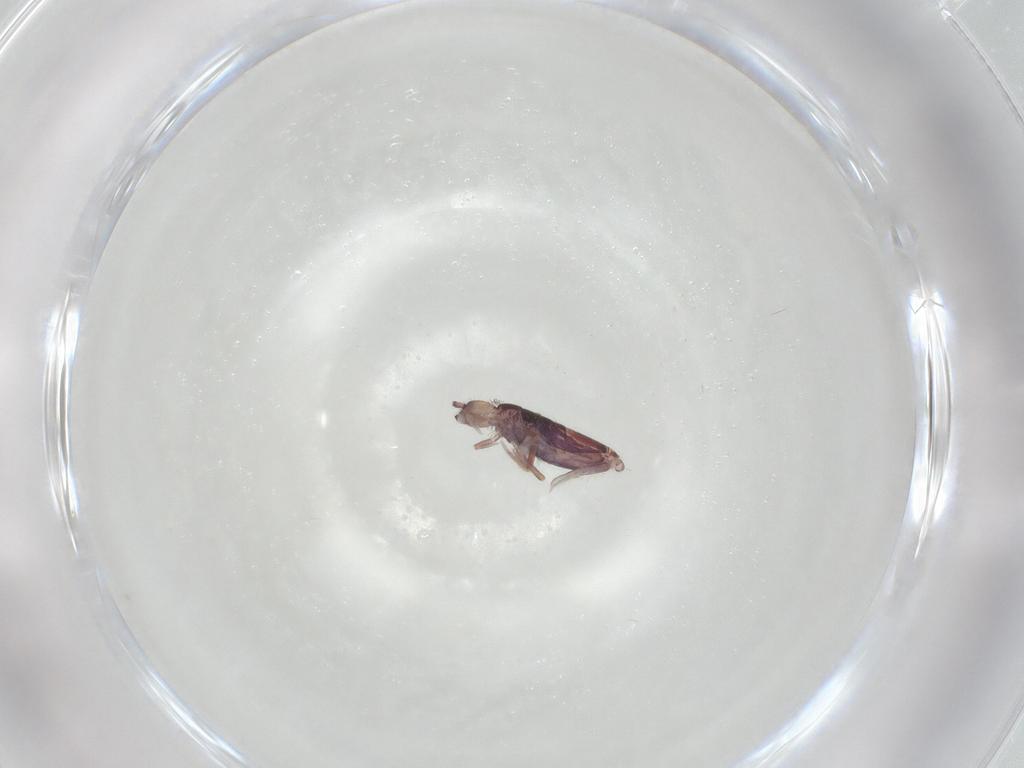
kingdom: Animalia
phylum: Arthropoda
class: Collembola
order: Entomobryomorpha
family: Entomobryidae
